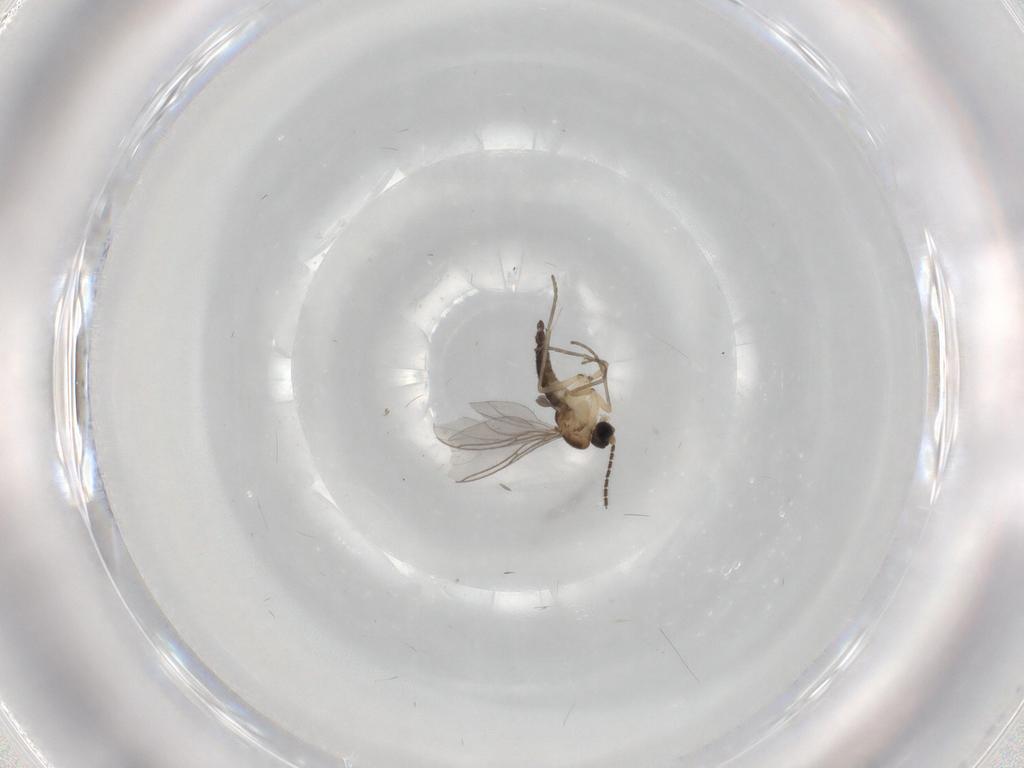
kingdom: Animalia
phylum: Arthropoda
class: Insecta
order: Diptera
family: Sciaridae
